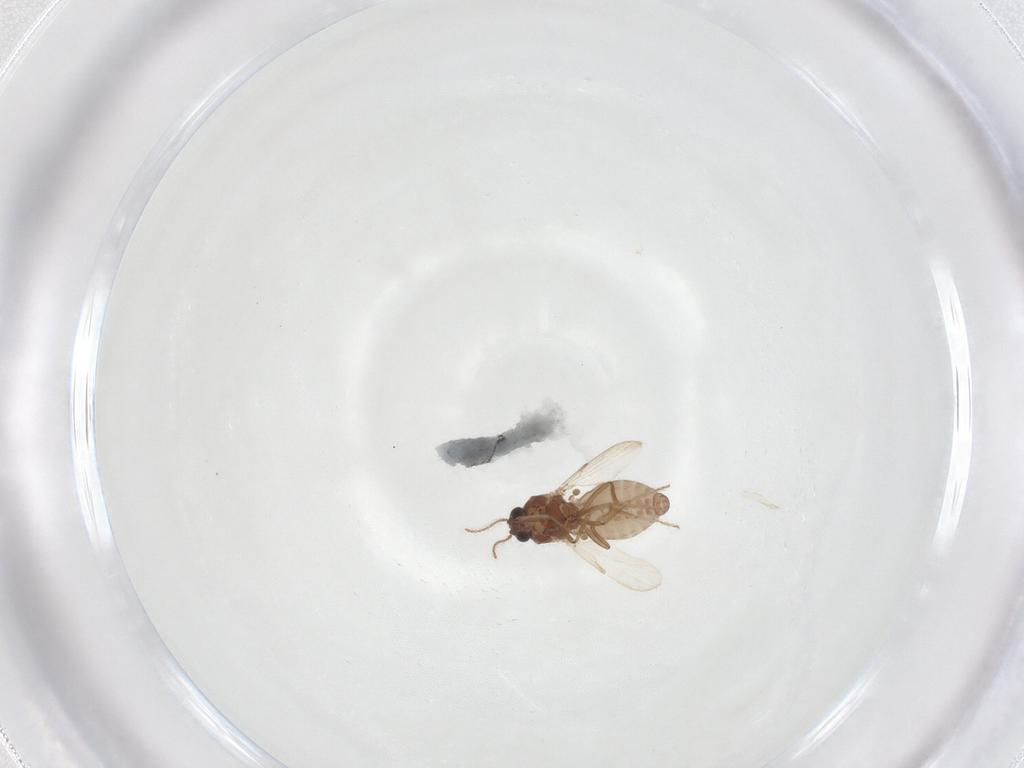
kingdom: Animalia
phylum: Arthropoda
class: Insecta
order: Diptera
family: Ceratopogonidae
